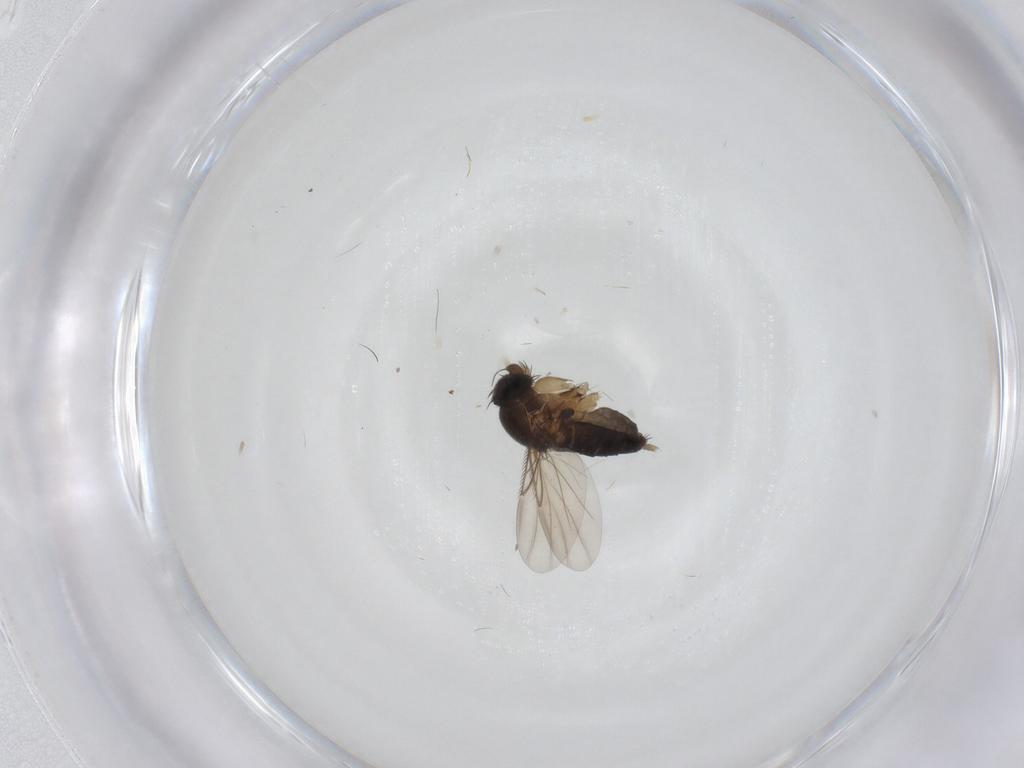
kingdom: Animalia
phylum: Arthropoda
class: Insecta
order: Diptera
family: Phoridae
